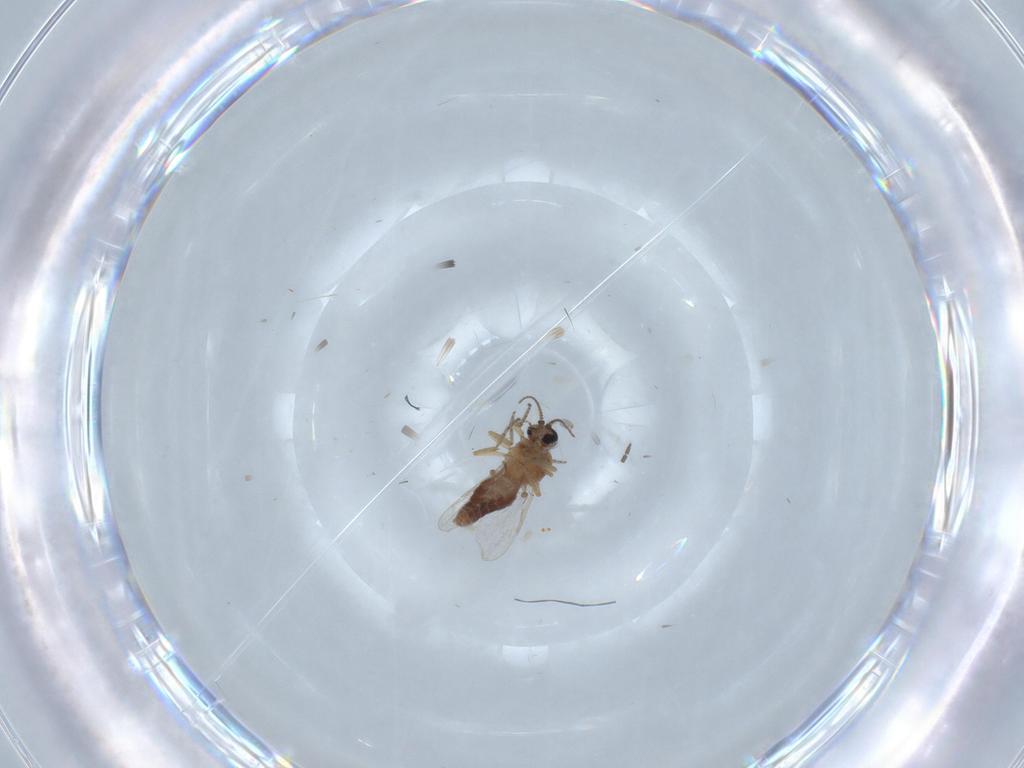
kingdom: Animalia
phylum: Arthropoda
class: Insecta
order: Diptera
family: Ceratopogonidae
